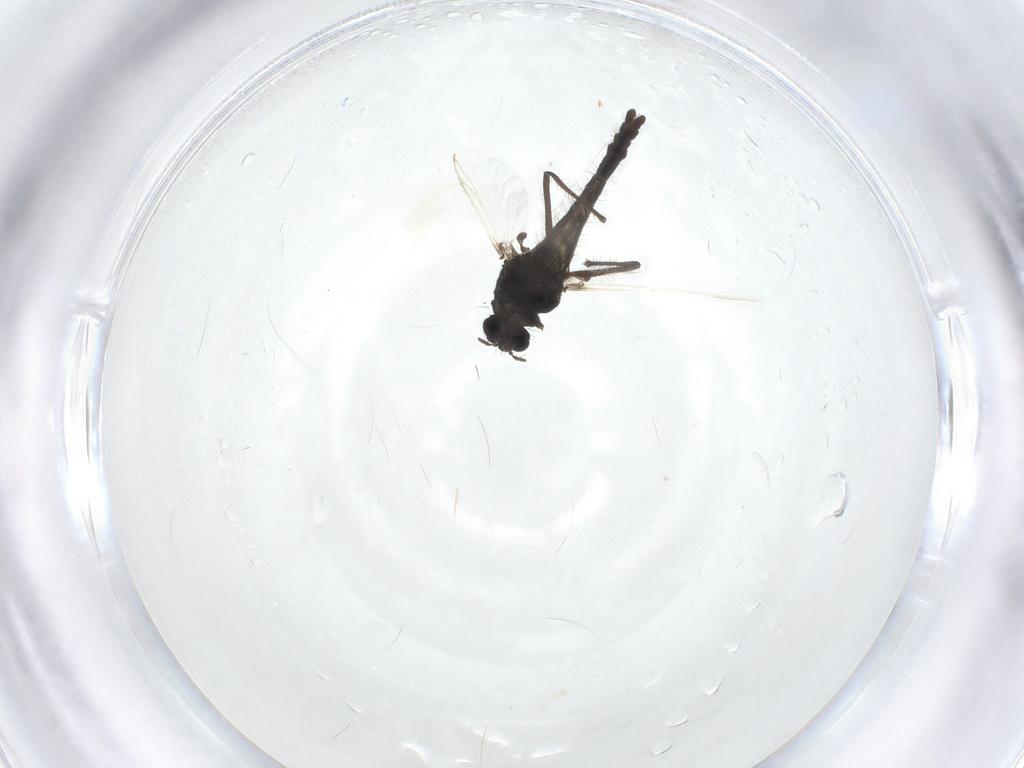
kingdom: Animalia
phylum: Arthropoda
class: Insecta
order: Diptera
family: Chironomidae
